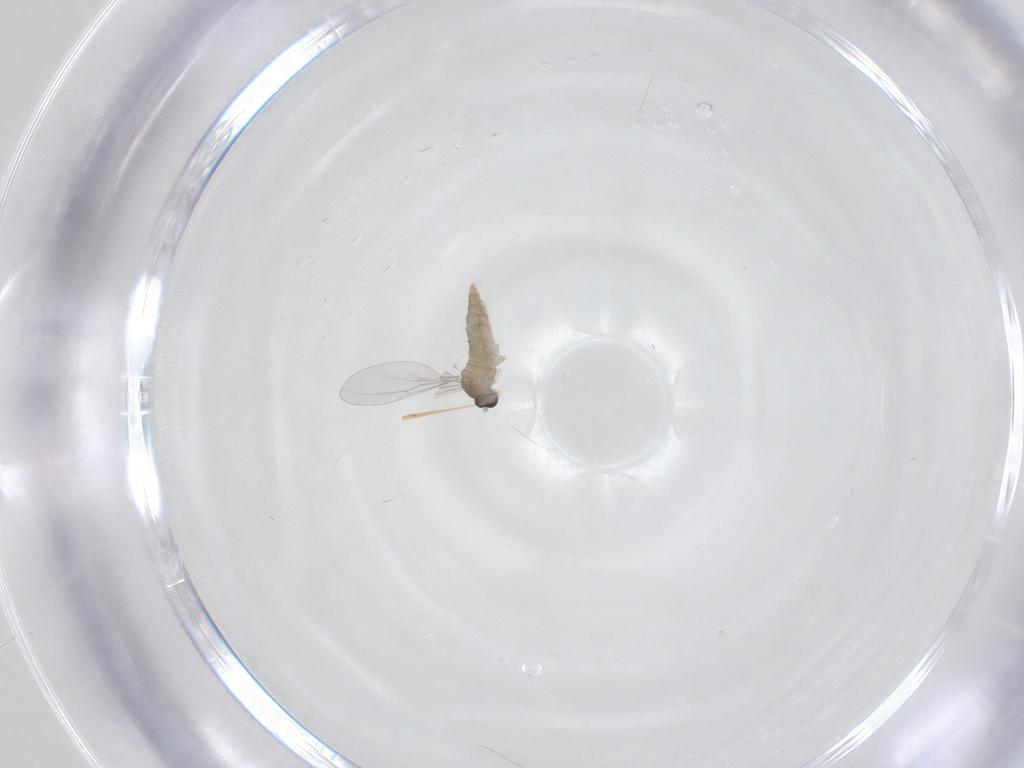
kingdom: Animalia
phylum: Arthropoda
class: Insecta
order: Diptera
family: Cecidomyiidae
